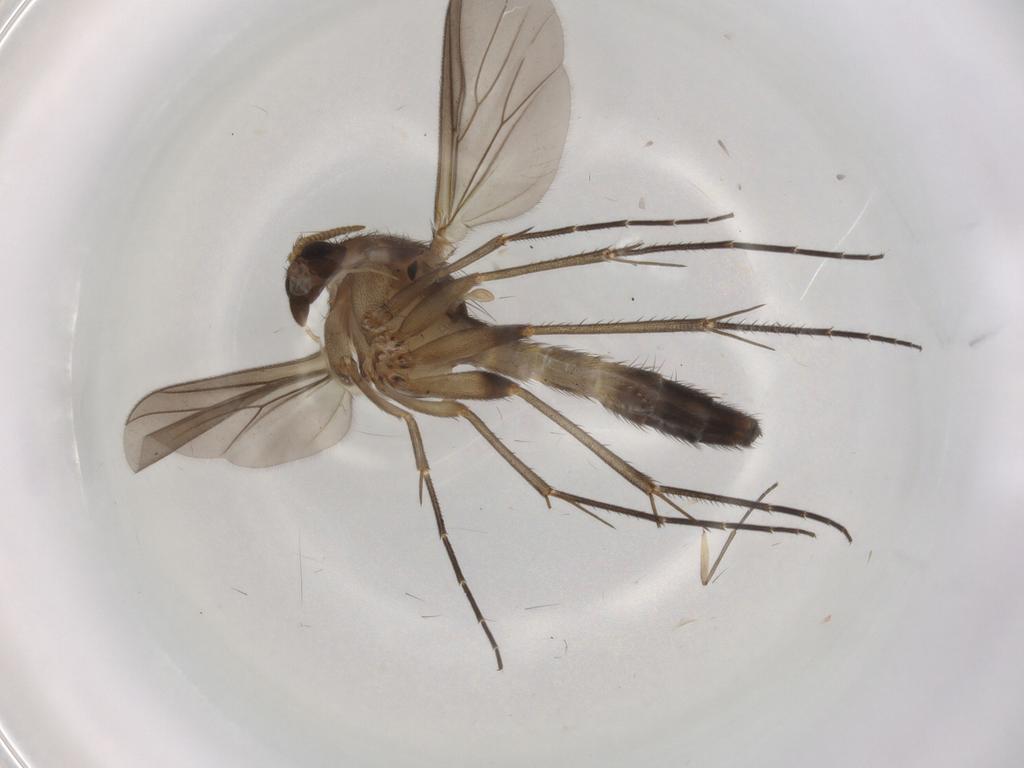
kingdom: Animalia
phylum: Arthropoda
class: Insecta
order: Diptera
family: Mycetophilidae
